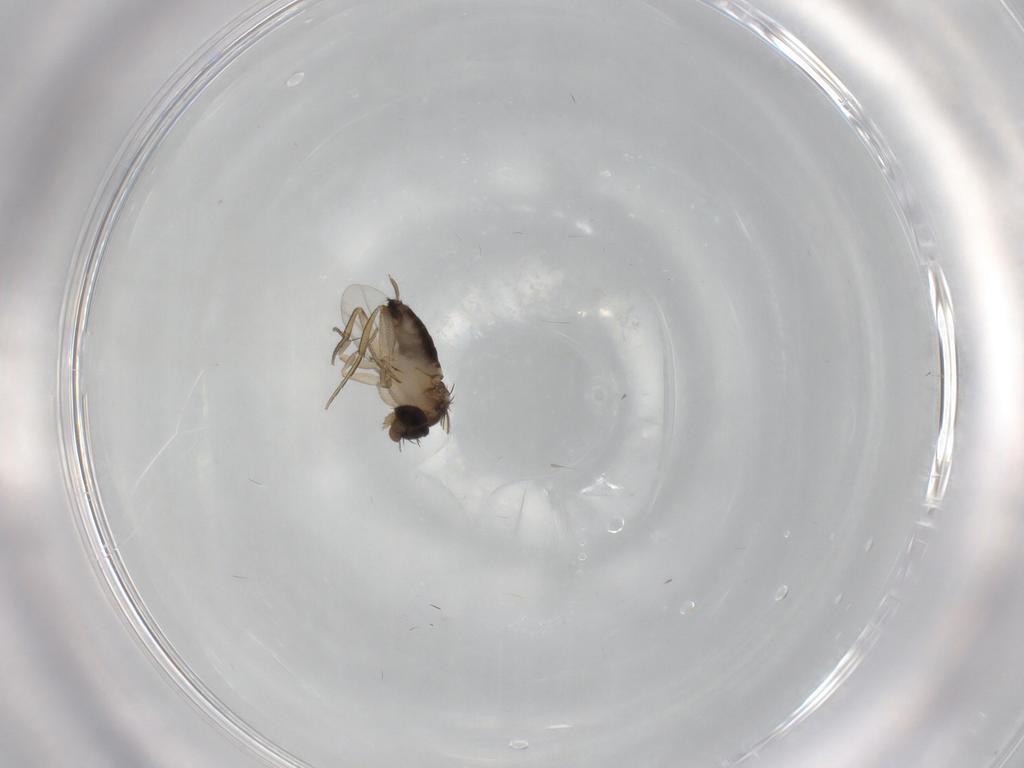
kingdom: Animalia
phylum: Arthropoda
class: Insecta
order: Diptera
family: Phoridae
